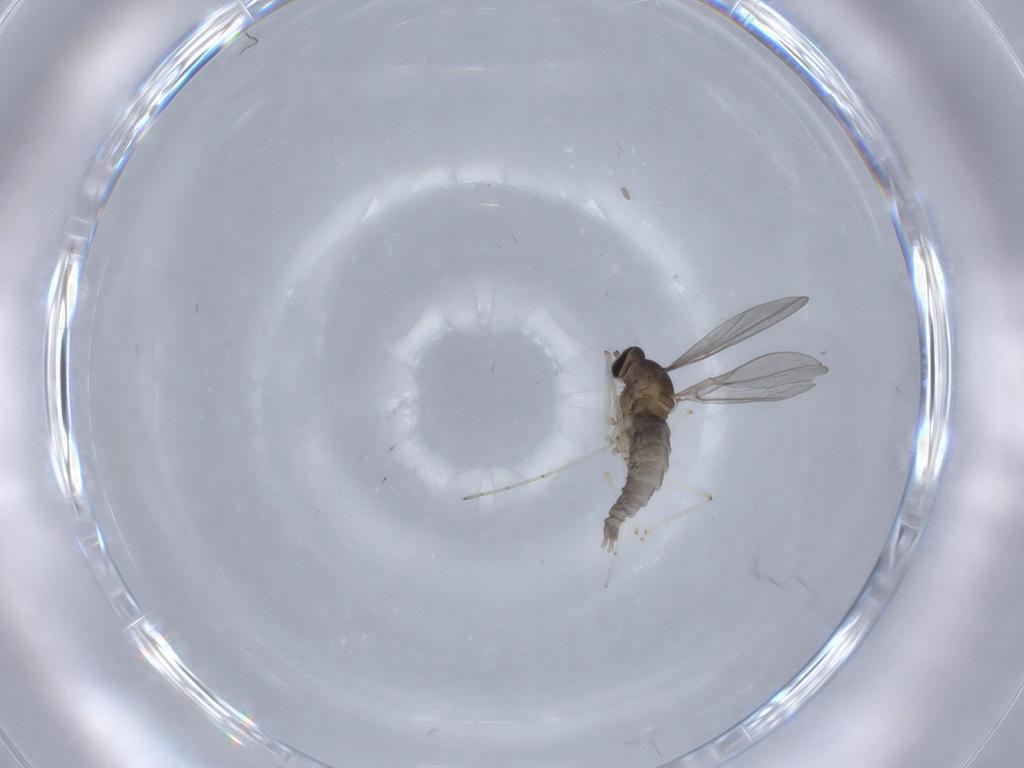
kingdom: Animalia
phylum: Arthropoda
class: Insecta
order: Diptera
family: Cecidomyiidae
